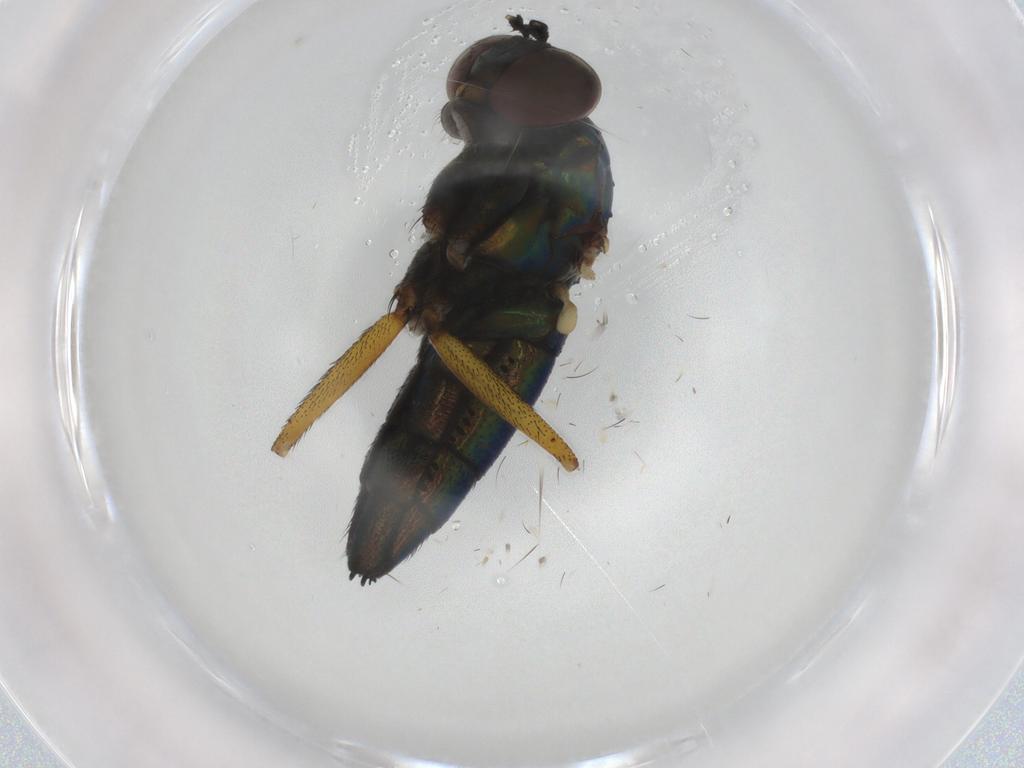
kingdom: Animalia
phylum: Arthropoda
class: Insecta
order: Diptera
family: Dolichopodidae
